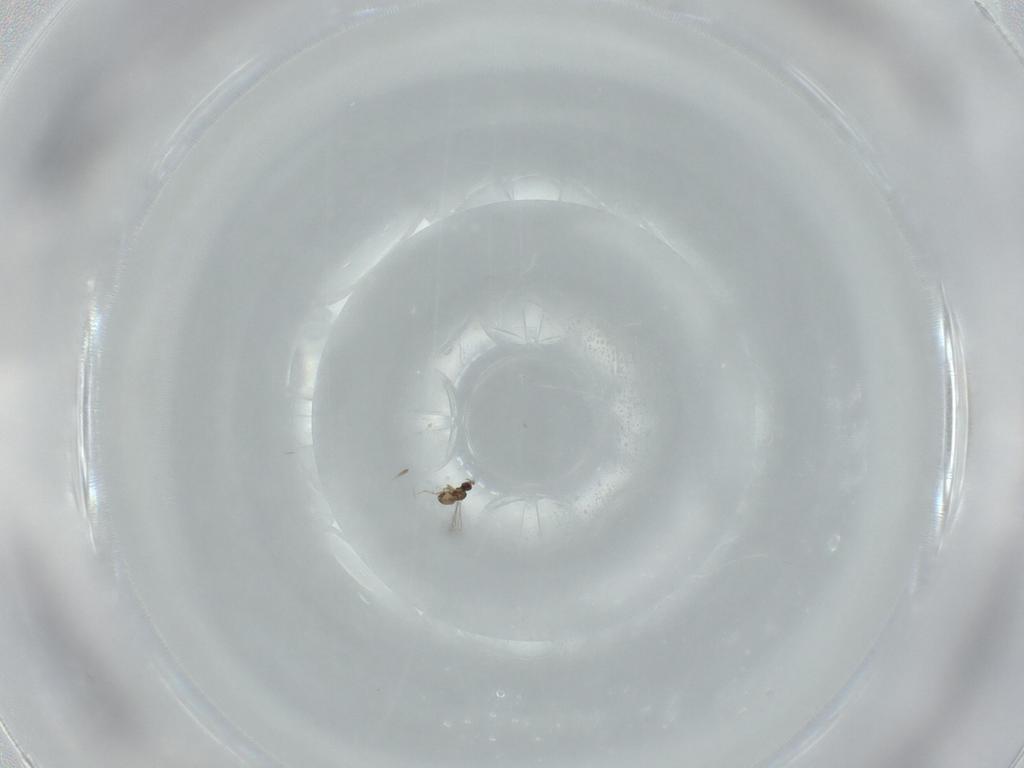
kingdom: Animalia
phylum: Arthropoda
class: Insecta
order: Hymenoptera
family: Mymaridae
